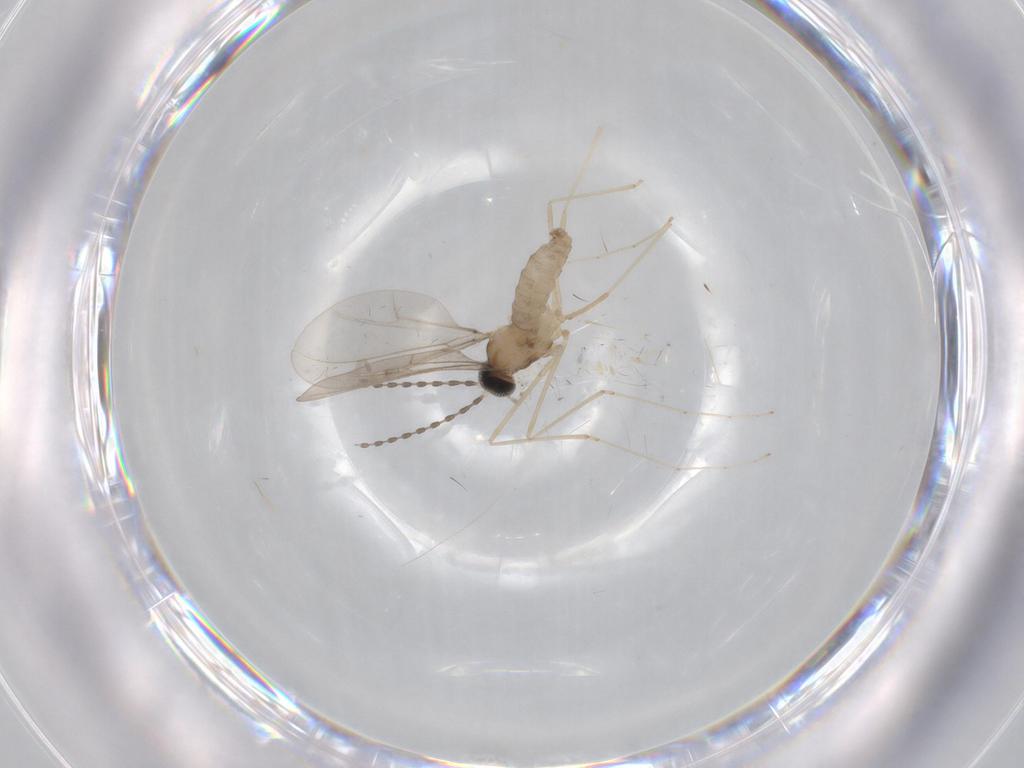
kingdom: Animalia
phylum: Arthropoda
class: Insecta
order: Diptera
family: Cecidomyiidae
